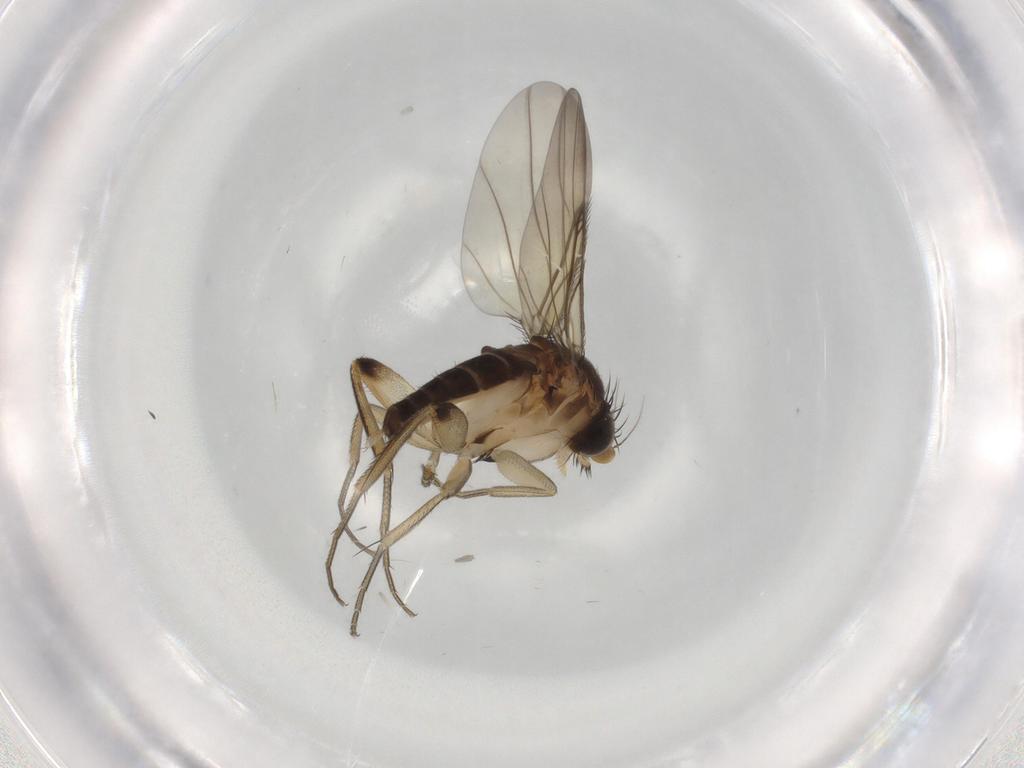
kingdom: Animalia
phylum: Arthropoda
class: Insecta
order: Diptera
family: Phoridae
